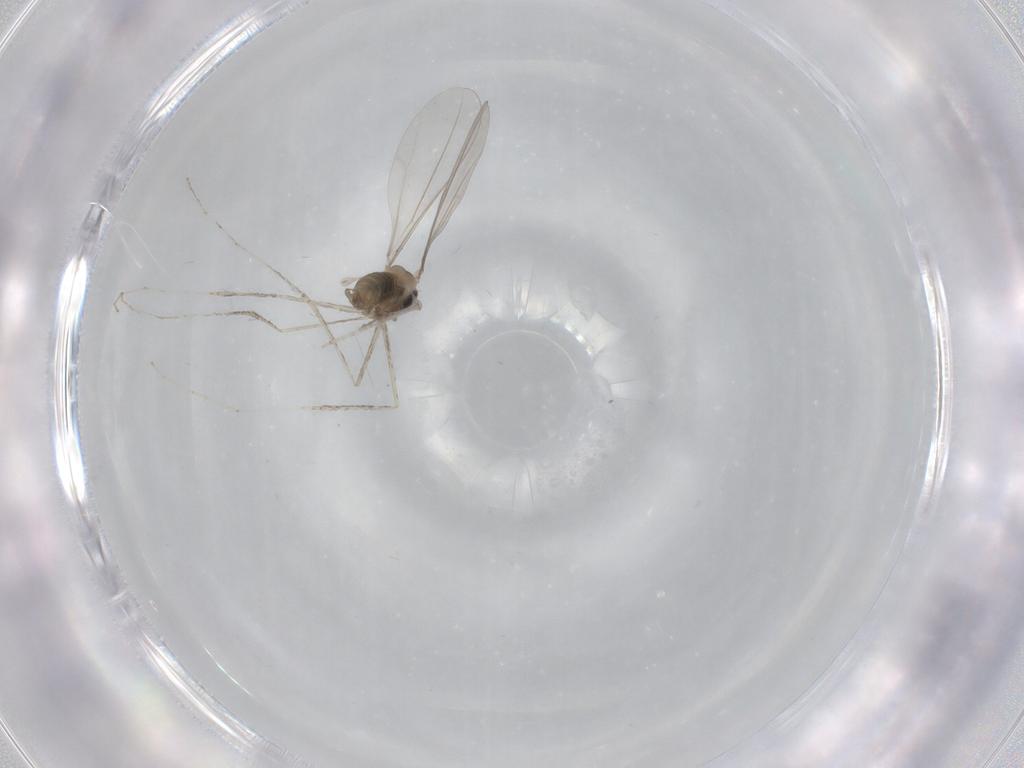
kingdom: Animalia
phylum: Arthropoda
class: Insecta
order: Diptera
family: Cecidomyiidae
